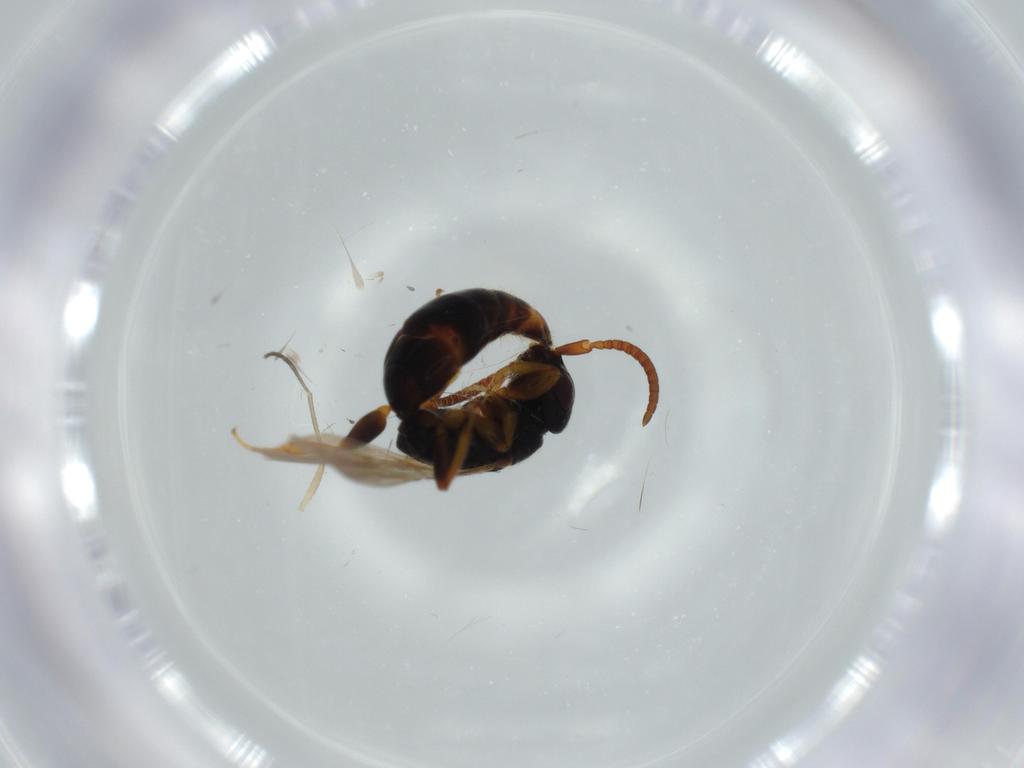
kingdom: Animalia
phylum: Arthropoda
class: Insecta
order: Hymenoptera
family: Bethylidae
